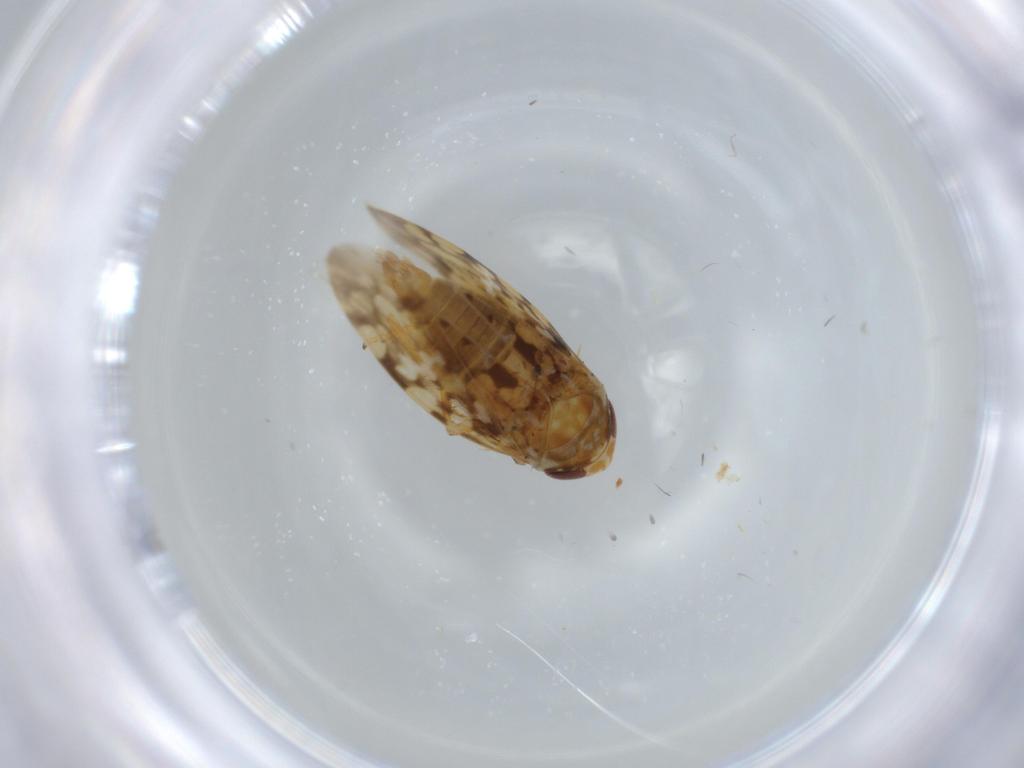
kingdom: Animalia
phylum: Arthropoda
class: Insecta
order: Hemiptera
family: Cicadellidae
